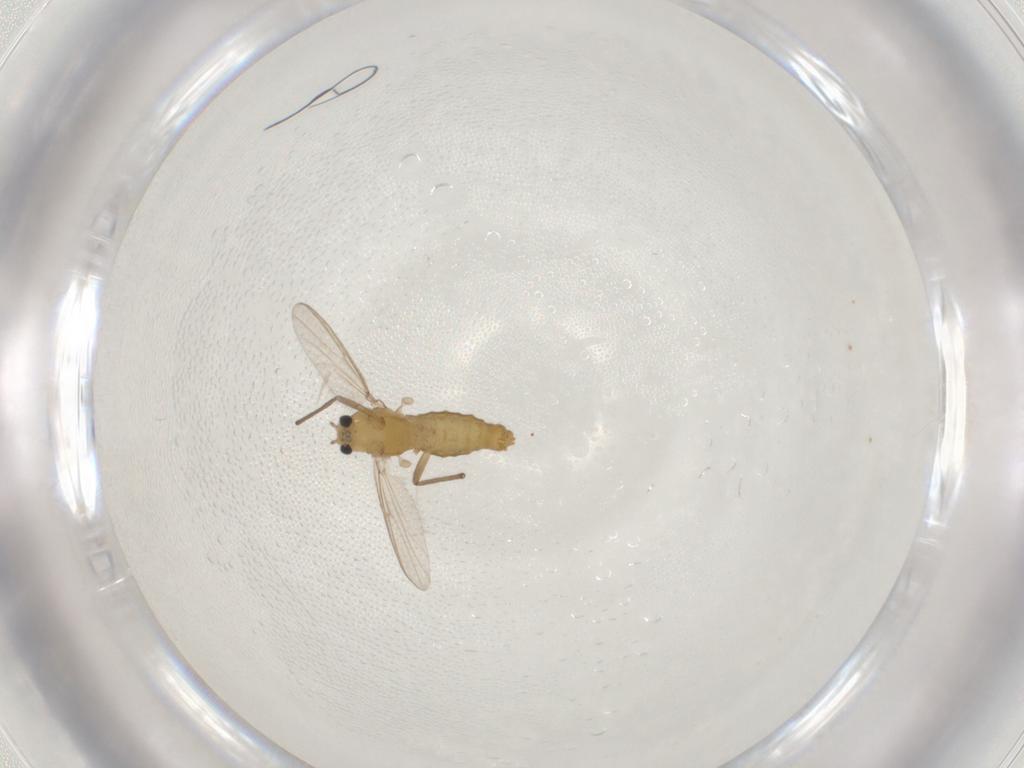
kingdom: Animalia
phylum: Arthropoda
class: Insecta
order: Diptera
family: Chironomidae
